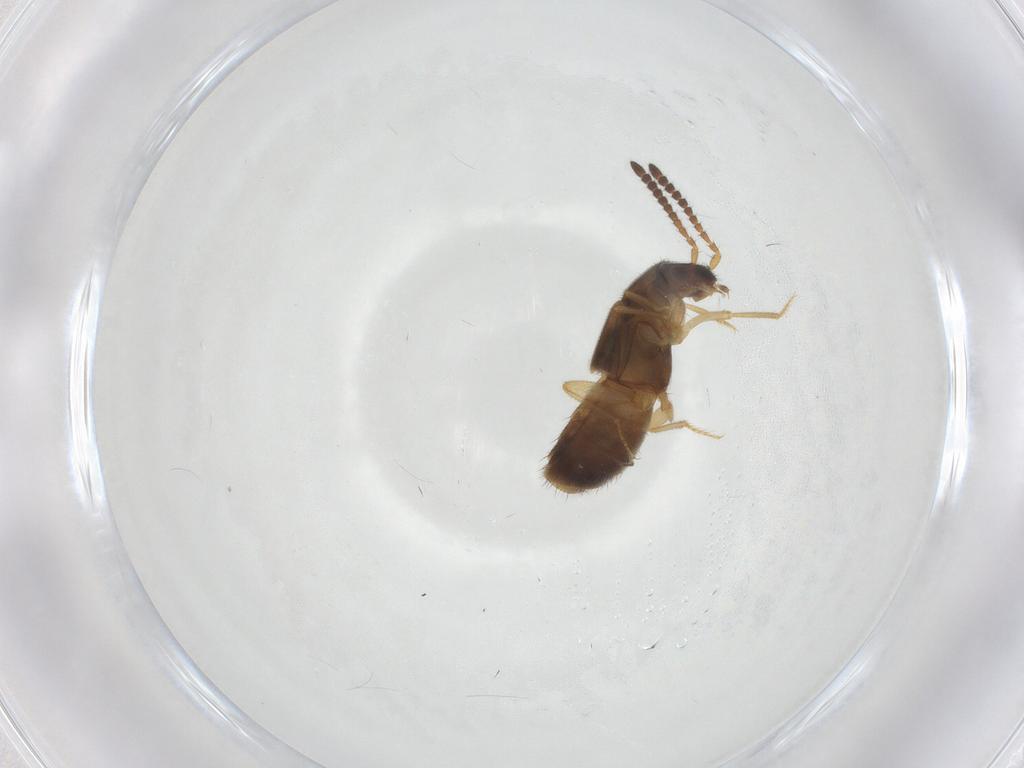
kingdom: Animalia
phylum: Arthropoda
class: Insecta
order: Coleoptera
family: Staphylinidae
